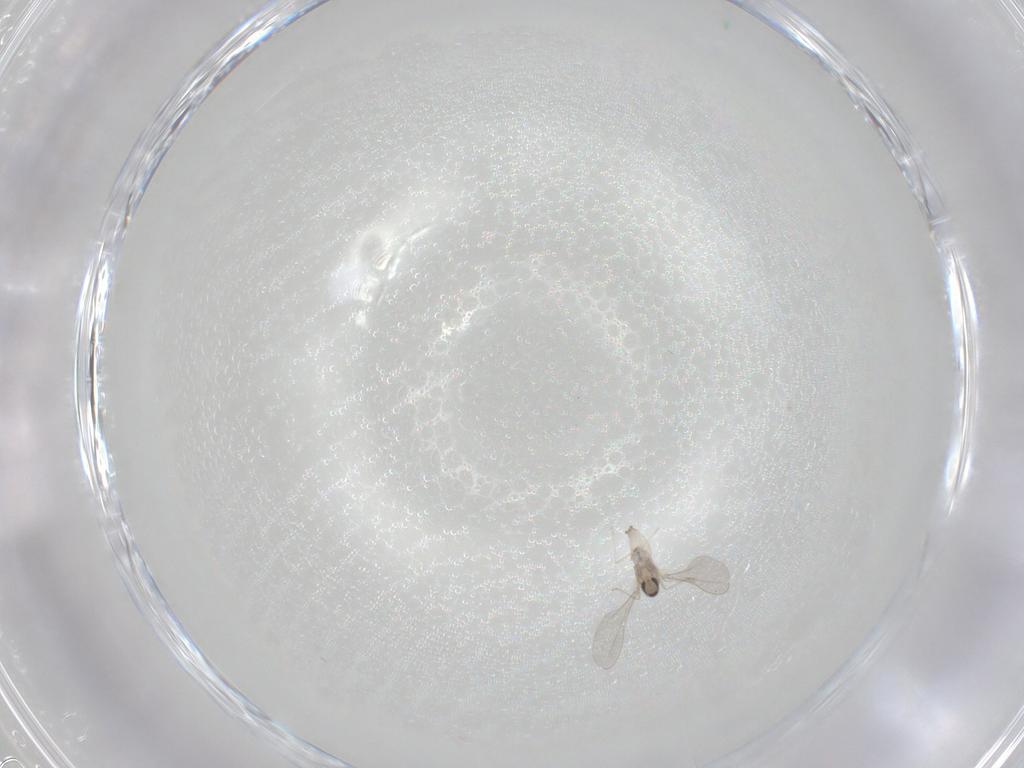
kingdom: Animalia
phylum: Arthropoda
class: Insecta
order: Diptera
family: Cecidomyiidae
